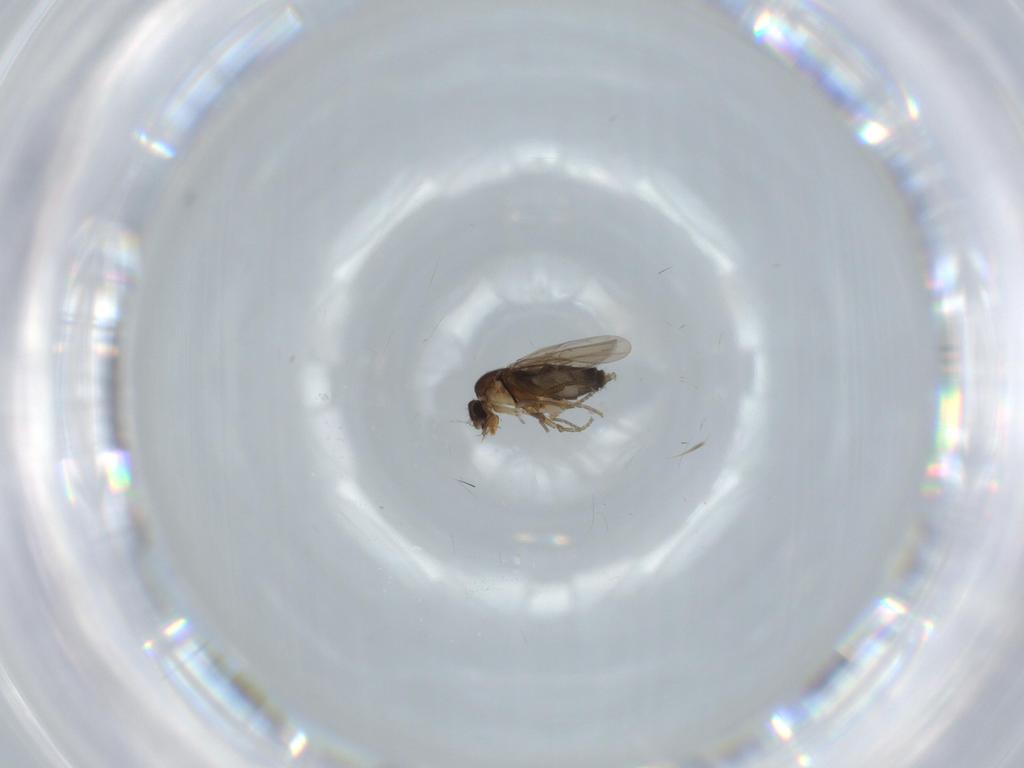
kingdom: Animalia
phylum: Arthropoda
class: Insecta
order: Diptera
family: Phoridae
